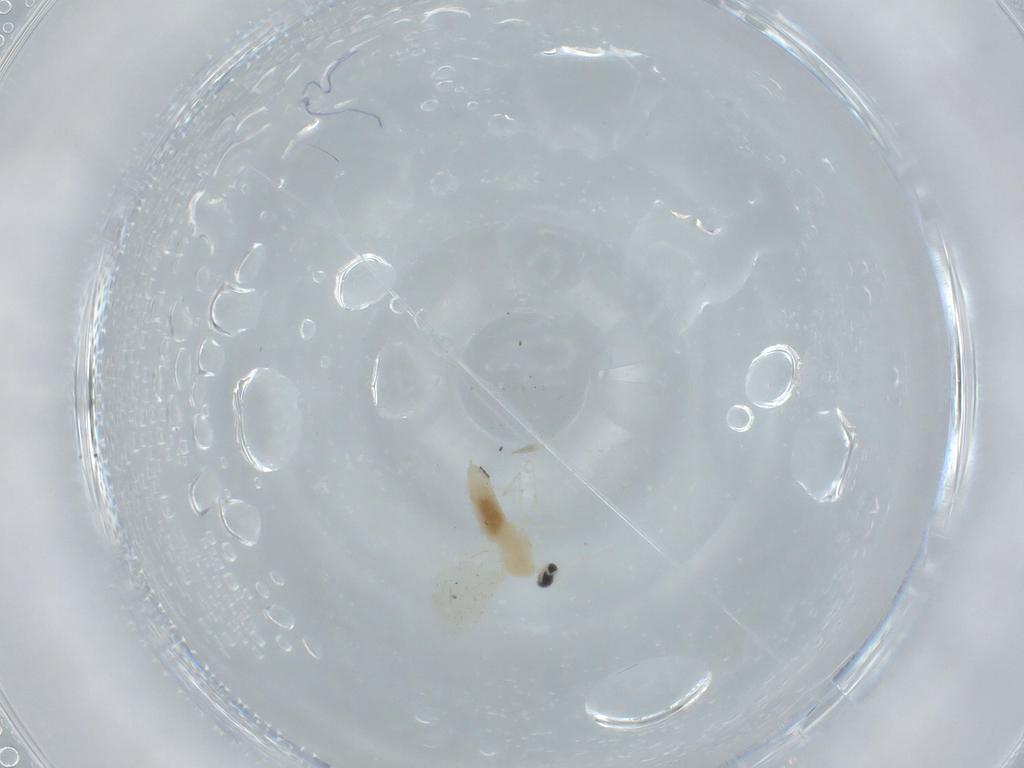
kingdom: Animalia
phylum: Arthropoda
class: Insecta
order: Diptera
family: Cecidomyiidae
